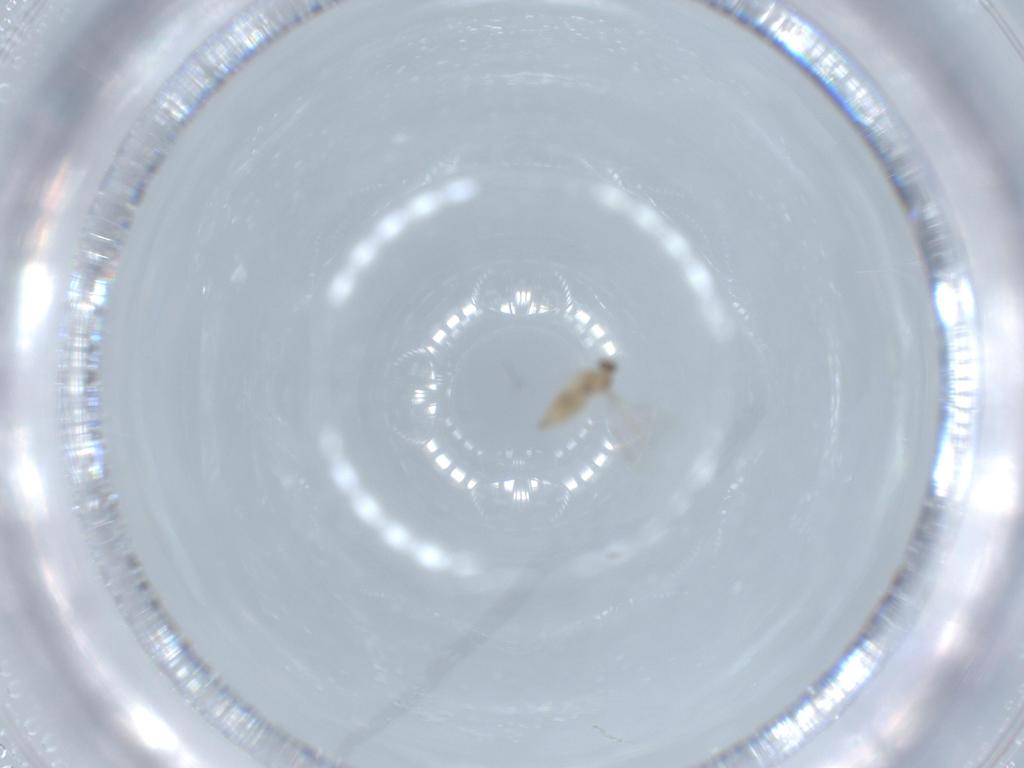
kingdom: Animalia
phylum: Arthropoda
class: Insecta
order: Diptera
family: Cecidomyiidae
